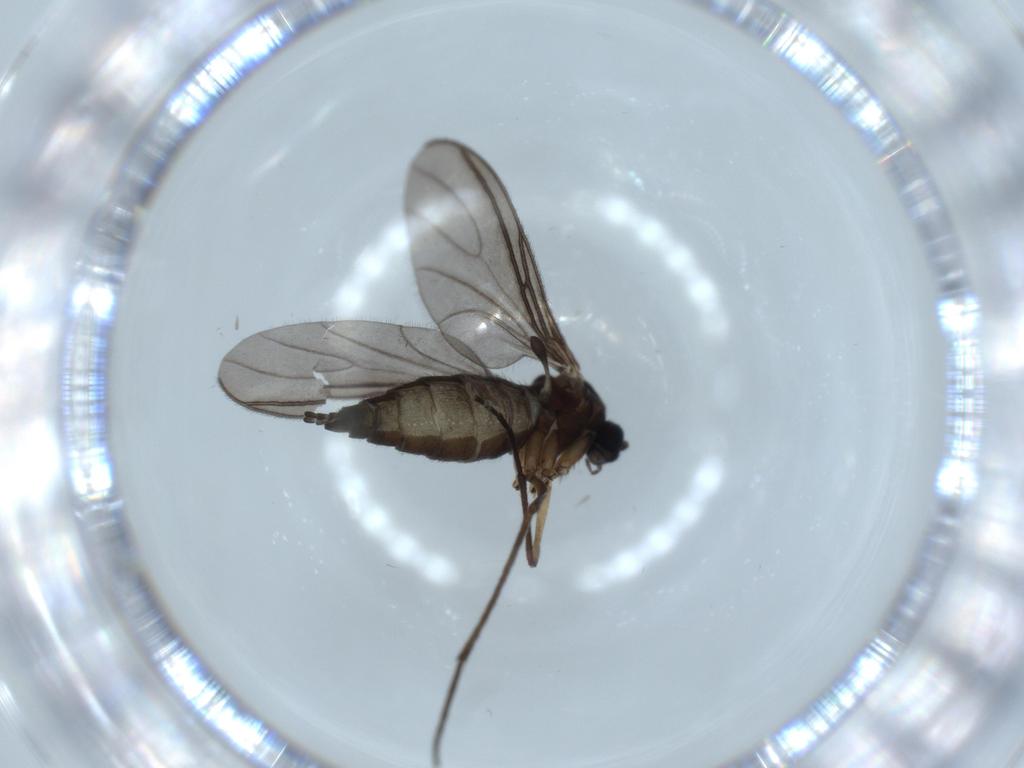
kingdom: Animalia
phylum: Arthropoda
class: Insecta
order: Diptera
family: Sciaridae
